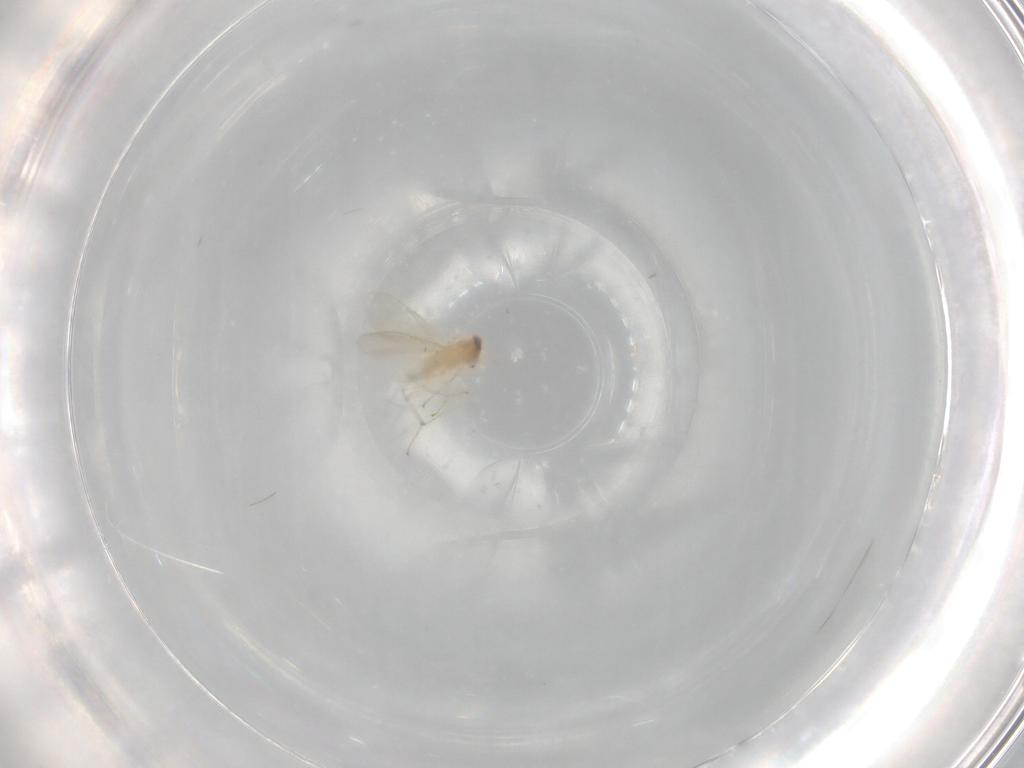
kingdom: Animalia
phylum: Arthropoda
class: Insecta
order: Hymenoptera
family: Aphelinidae
